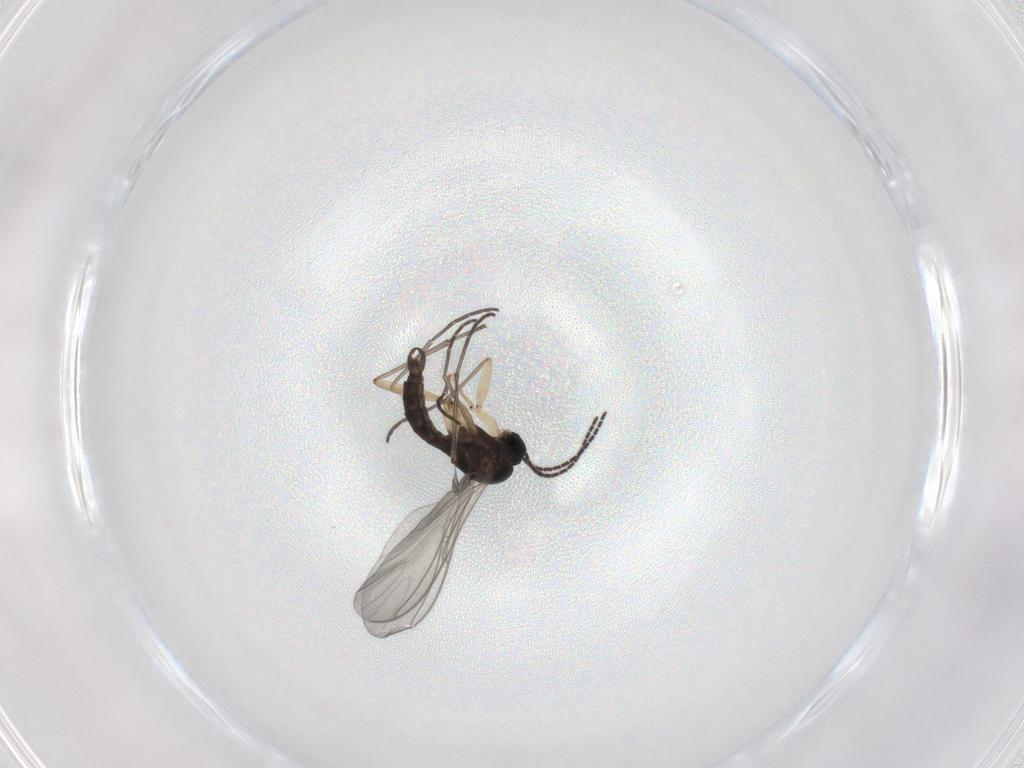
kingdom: Animalia
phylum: Arthropoda
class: Insecta
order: Diptera
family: Sciaridae
